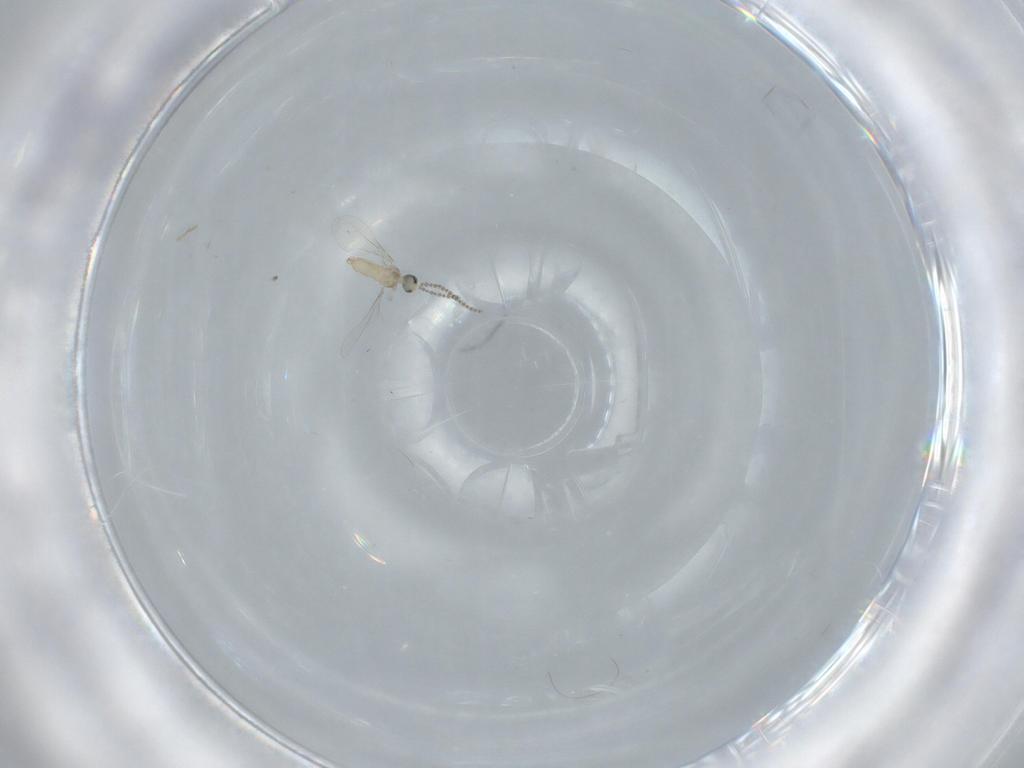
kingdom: Animalia
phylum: Arthropoda
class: Insecta
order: Diptera
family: Cecidomyiidae
